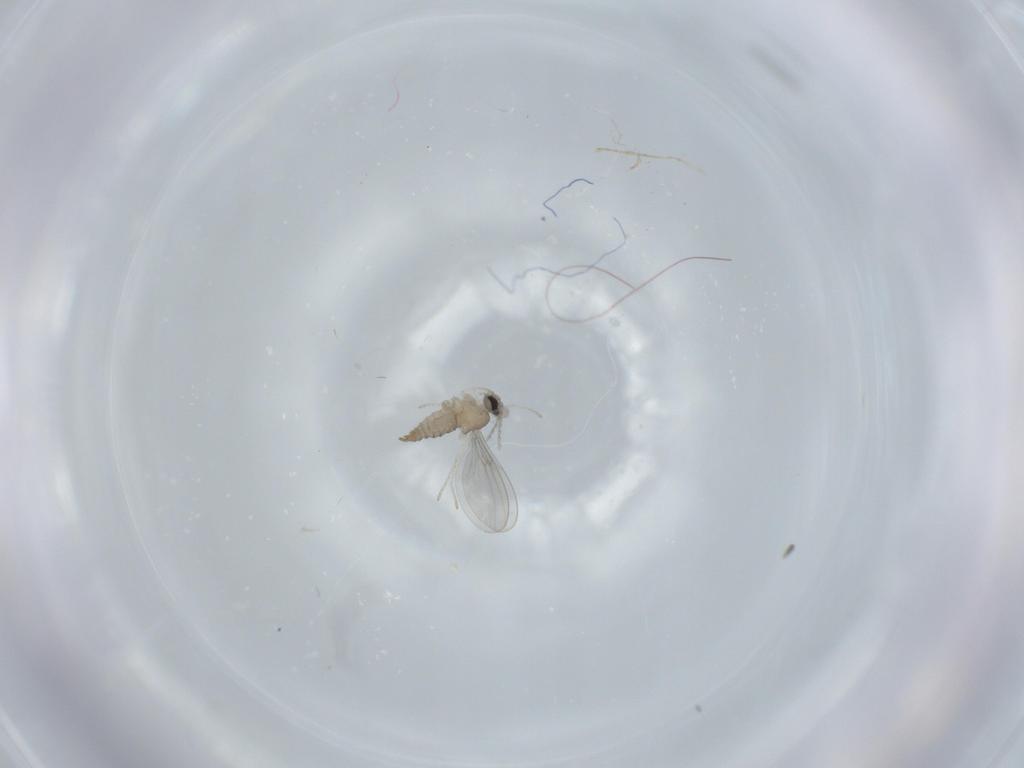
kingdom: Animalia
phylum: Arthropoda
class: Insecta
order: Diptera
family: Cecidomyiidae
